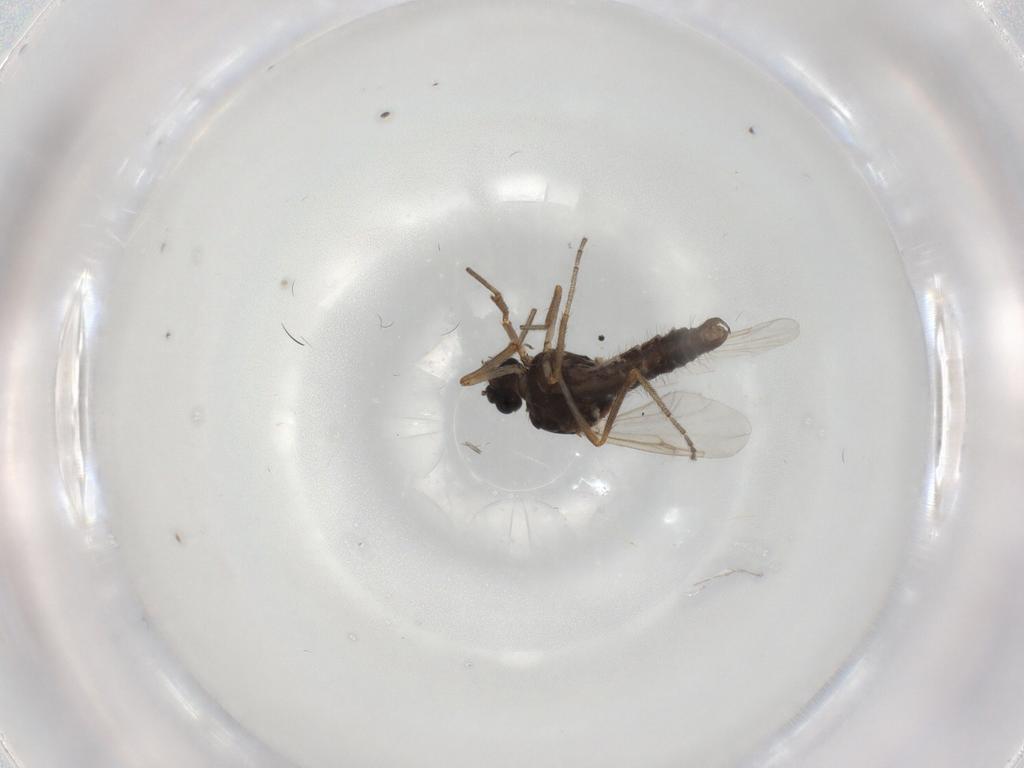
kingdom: Animalia
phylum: Arthropoda
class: Insecta
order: Diptera
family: Ceratopogonidae
